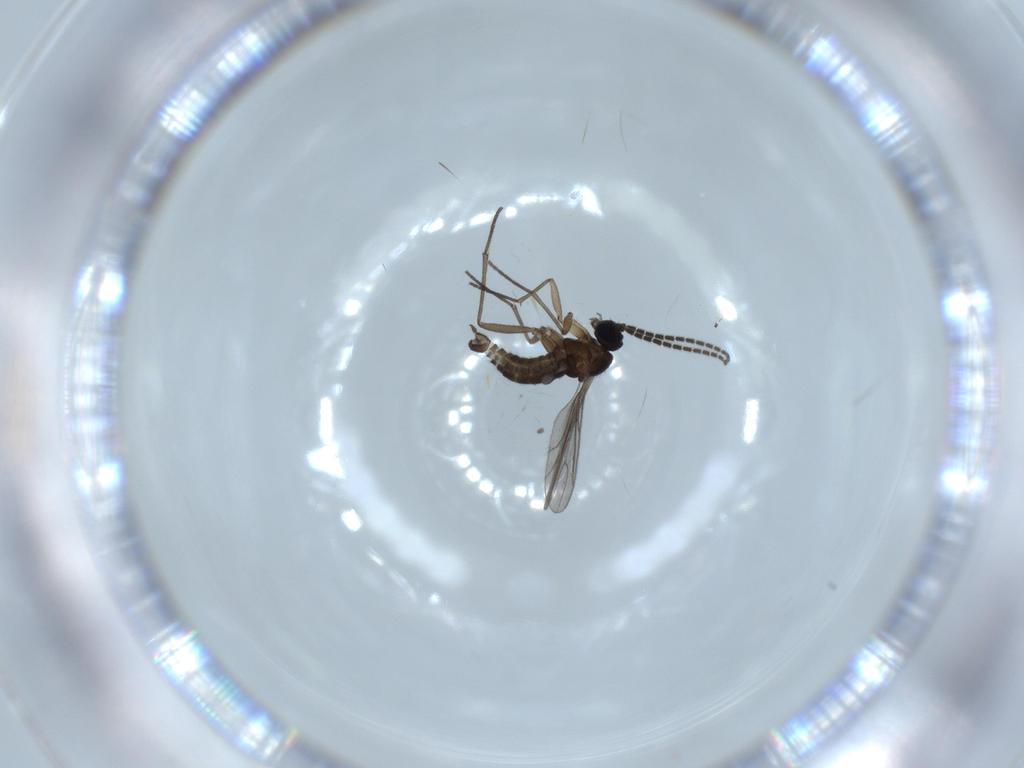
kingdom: Animalia
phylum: Arthropoda
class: Insecta
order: Diptera
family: Sciaridae
